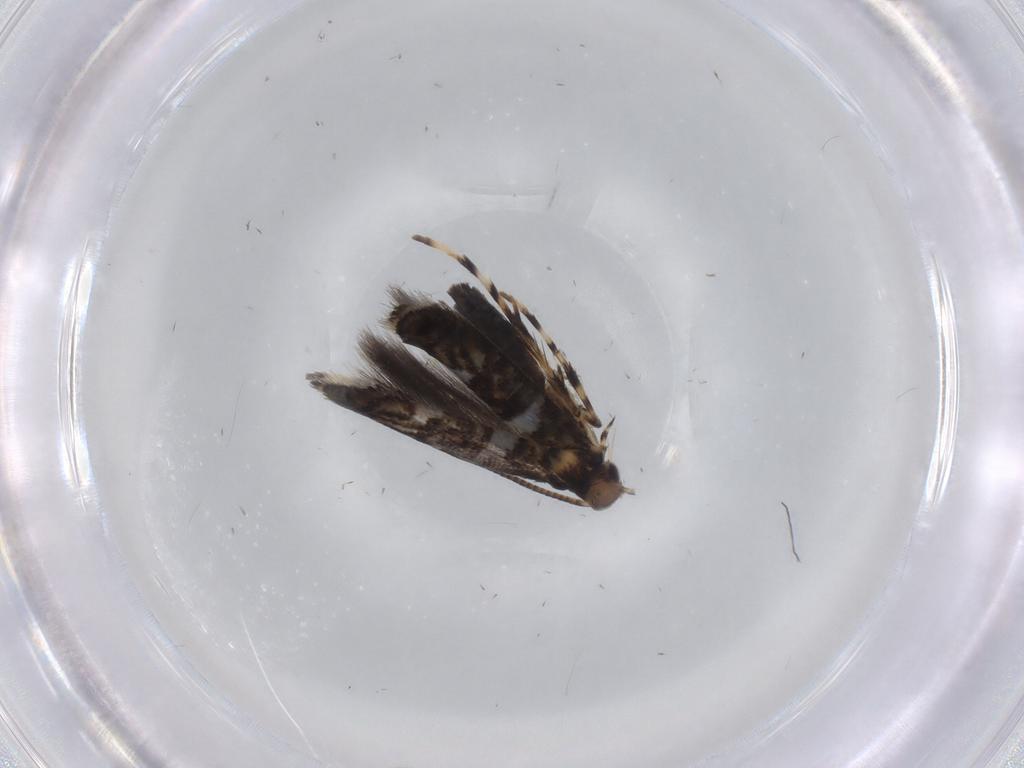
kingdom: Animalia
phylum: Arthropoda
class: Insecta
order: Lepidoptera
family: Gracillariidae
